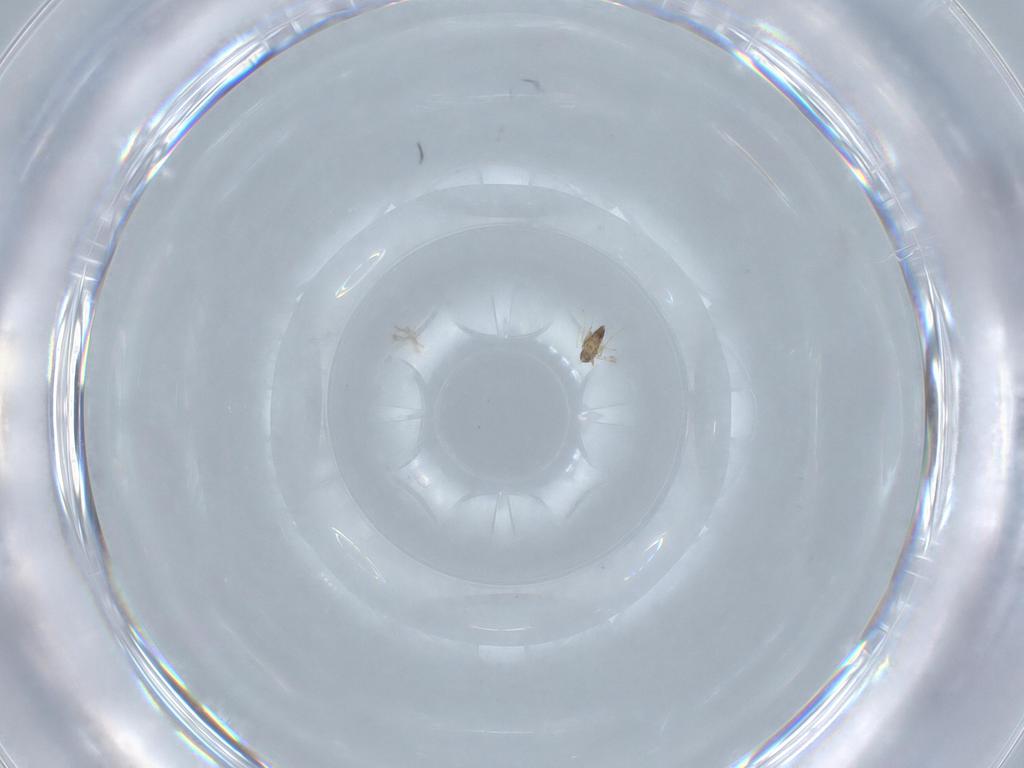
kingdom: Animalia
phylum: Arthropoda
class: Insecta
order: Hymenoptera
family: Mymaridae
